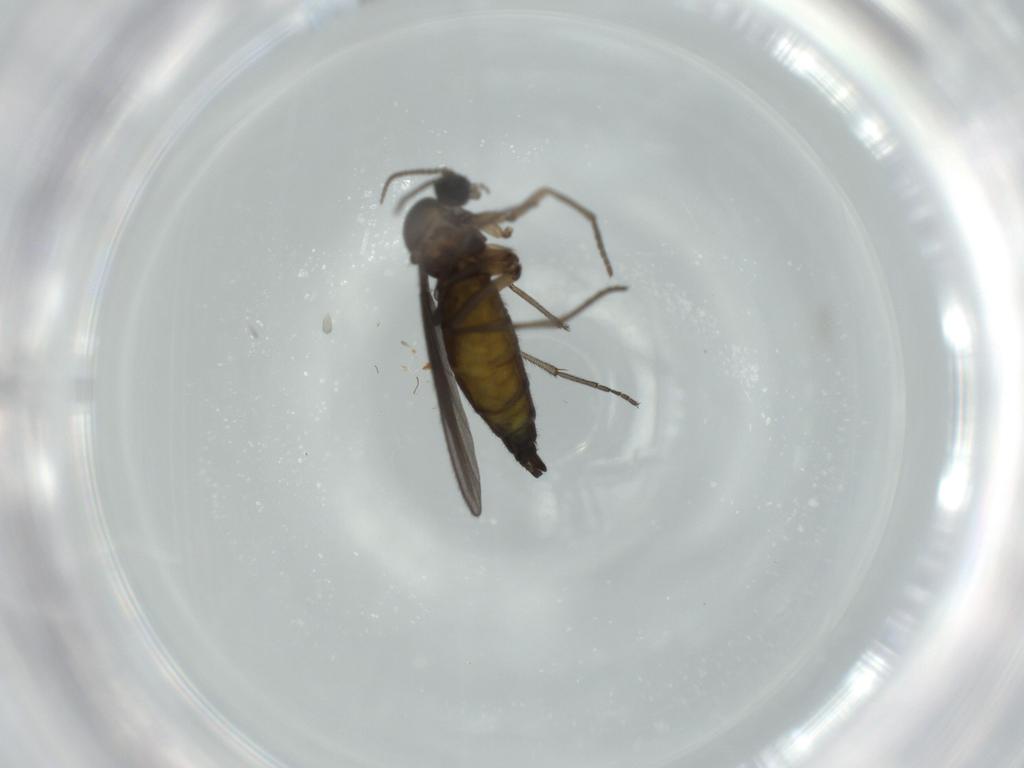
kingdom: Animalia
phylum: Arthropoda
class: Insecta
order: Diptera
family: Sciaridae
